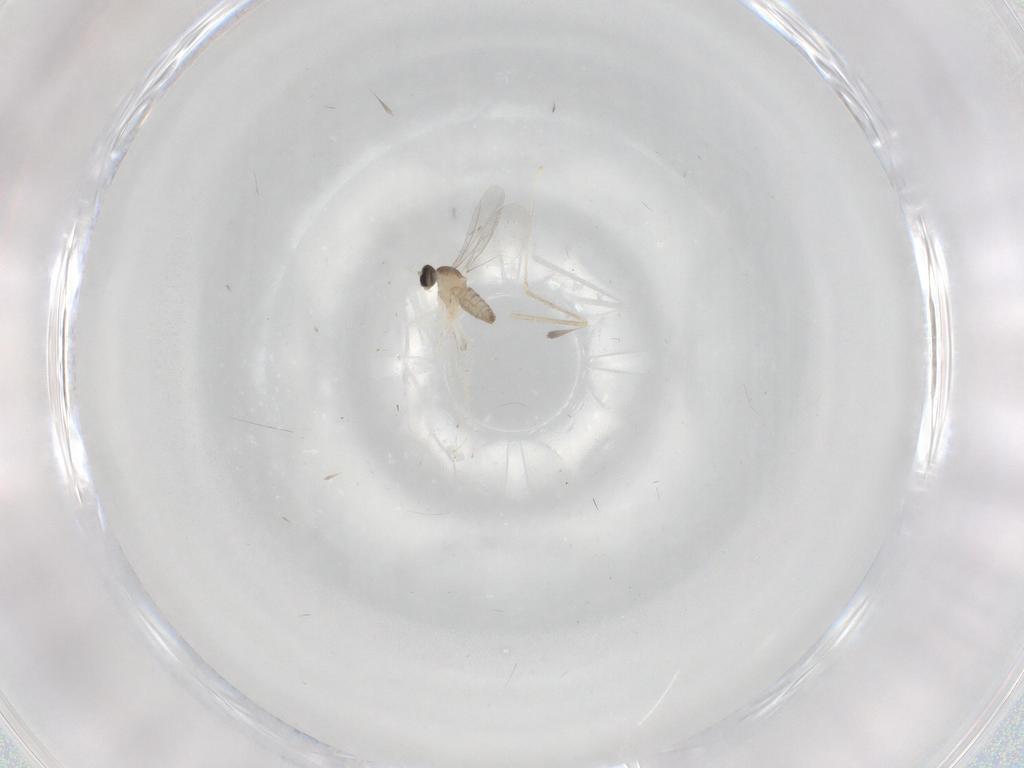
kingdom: Animalia
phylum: Arthropoda
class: Insecta
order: Diptera
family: Cecidomyiidae
